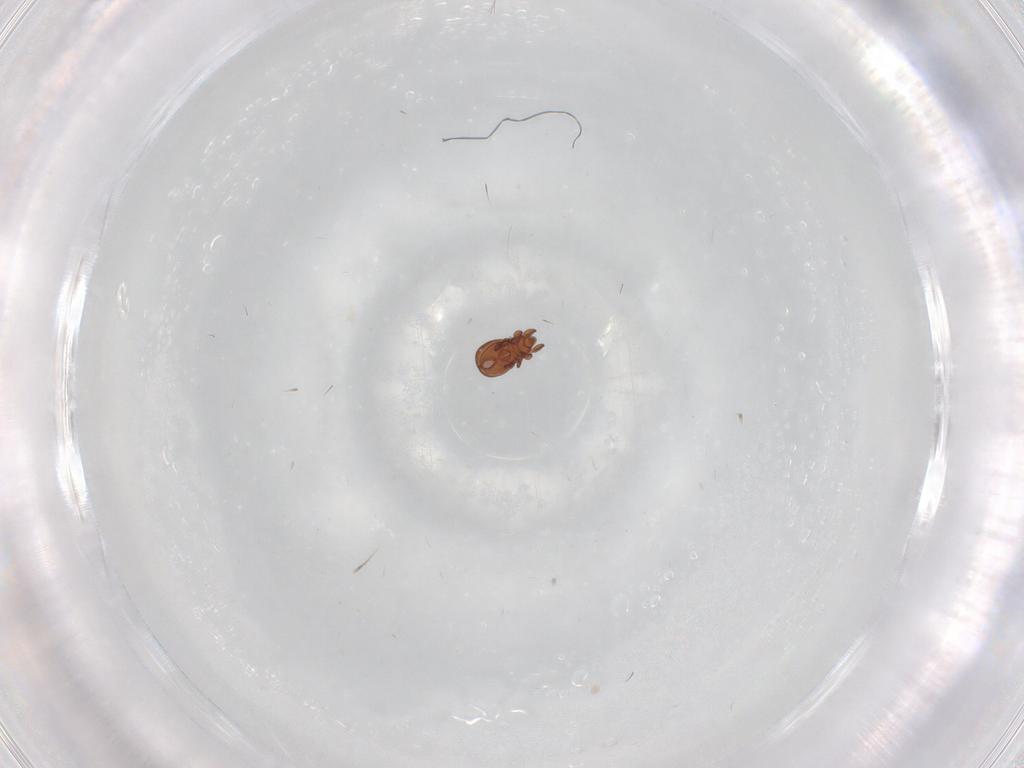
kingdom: Animalia
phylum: Arthropoda
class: Arachnida
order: Sarcoptiformes
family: Eremaeidae
